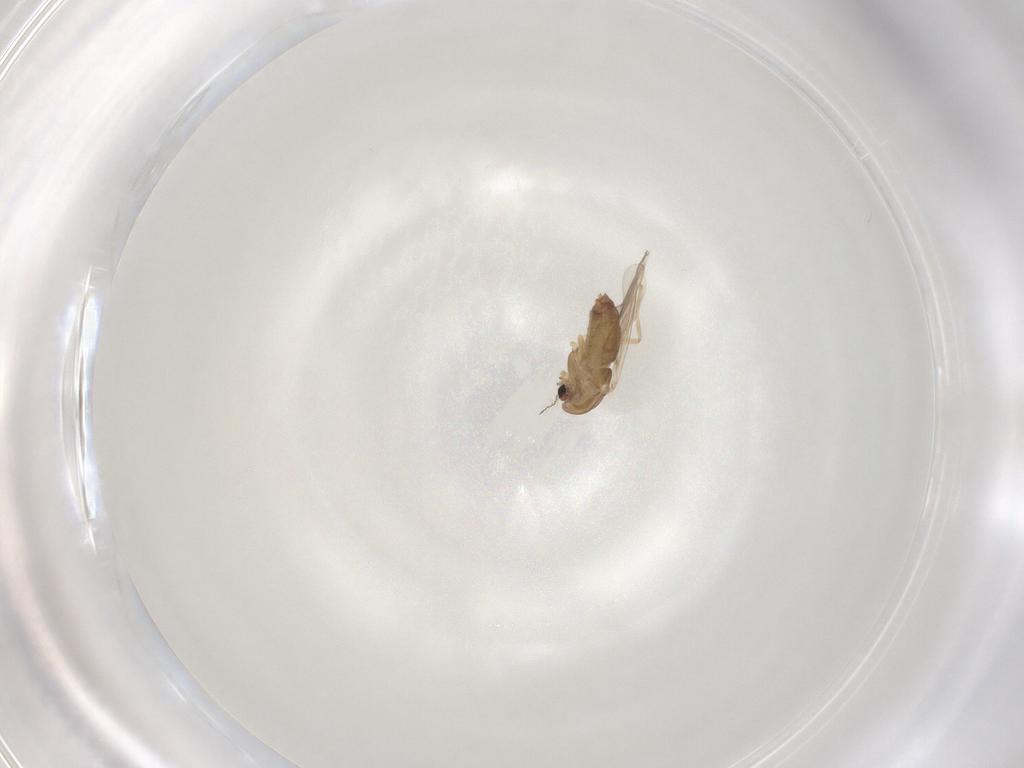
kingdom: Animalia
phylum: Arthropoda
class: Insecta
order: Diptera
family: Chironomidae
